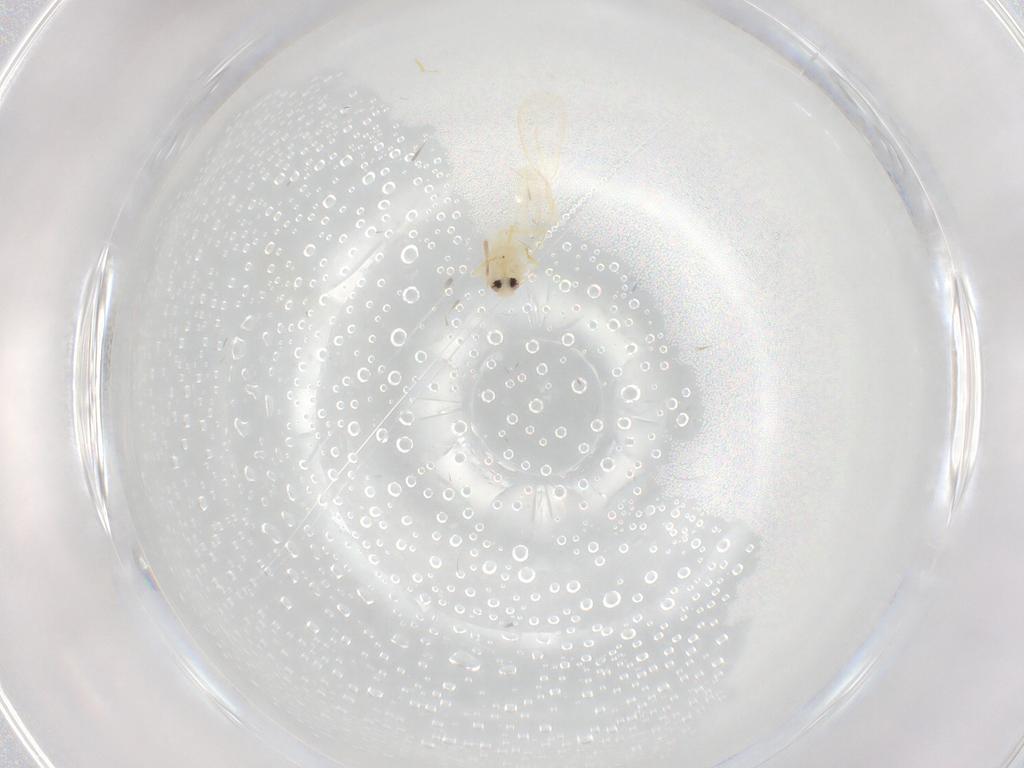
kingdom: Animalia
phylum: Arthropoda
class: Insecta
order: Hemiptera
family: Aleyrodidae
